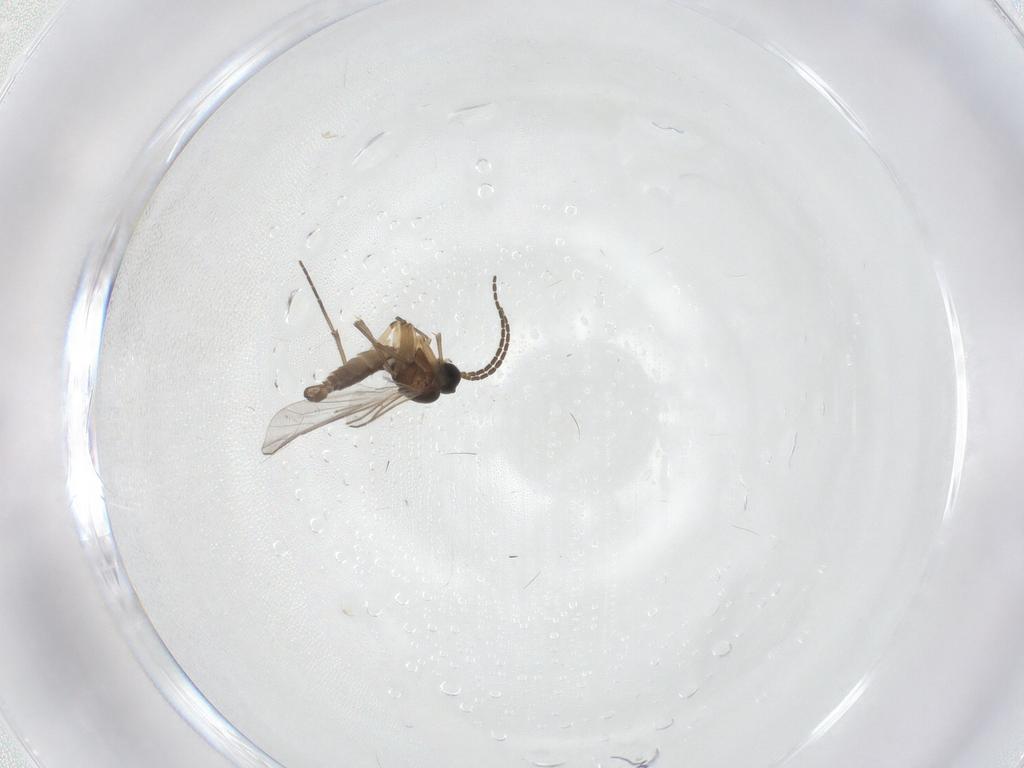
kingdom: Animalia
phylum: Arthropoda
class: Insecta
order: Diptera
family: Sciaridae
